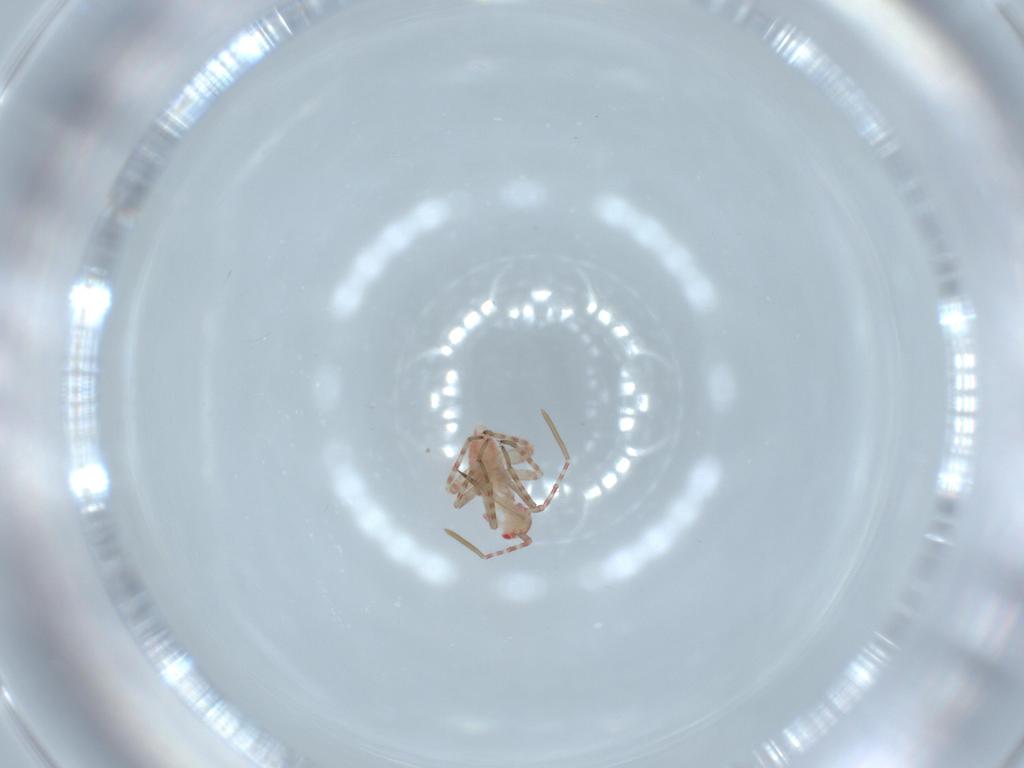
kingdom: Animalia
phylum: Arthropoda
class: Insecta
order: Hemiptera
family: Miridae
